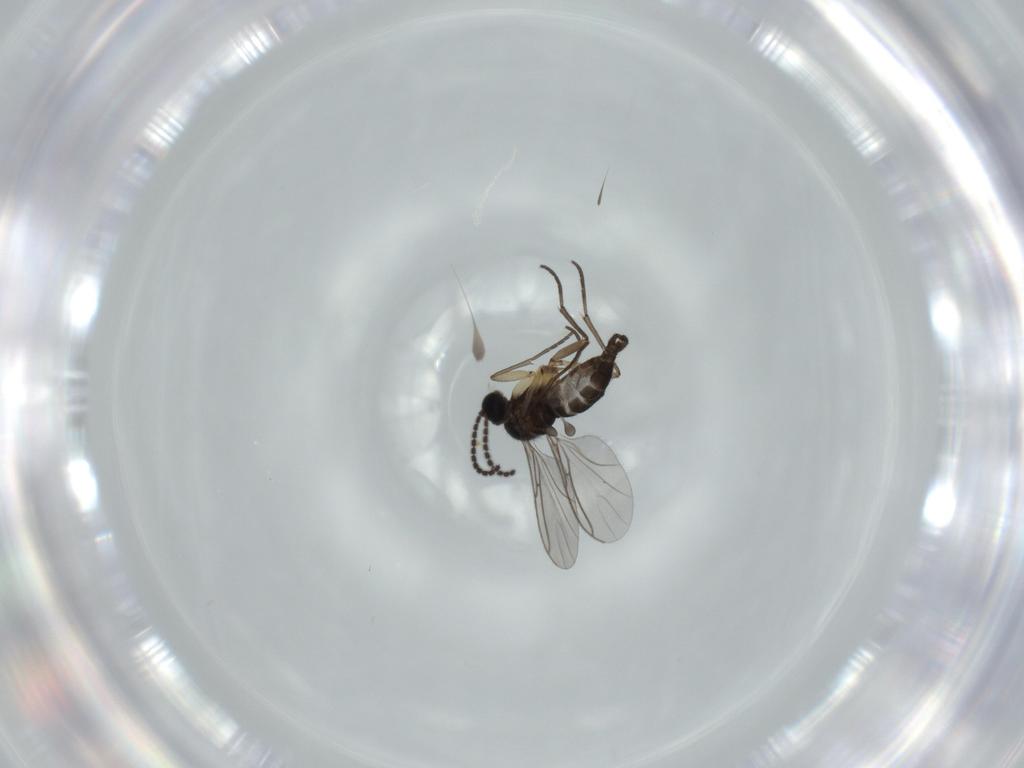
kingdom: Animalia
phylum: Arthropoda
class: Insecta
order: Diptera
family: Sciaridae
